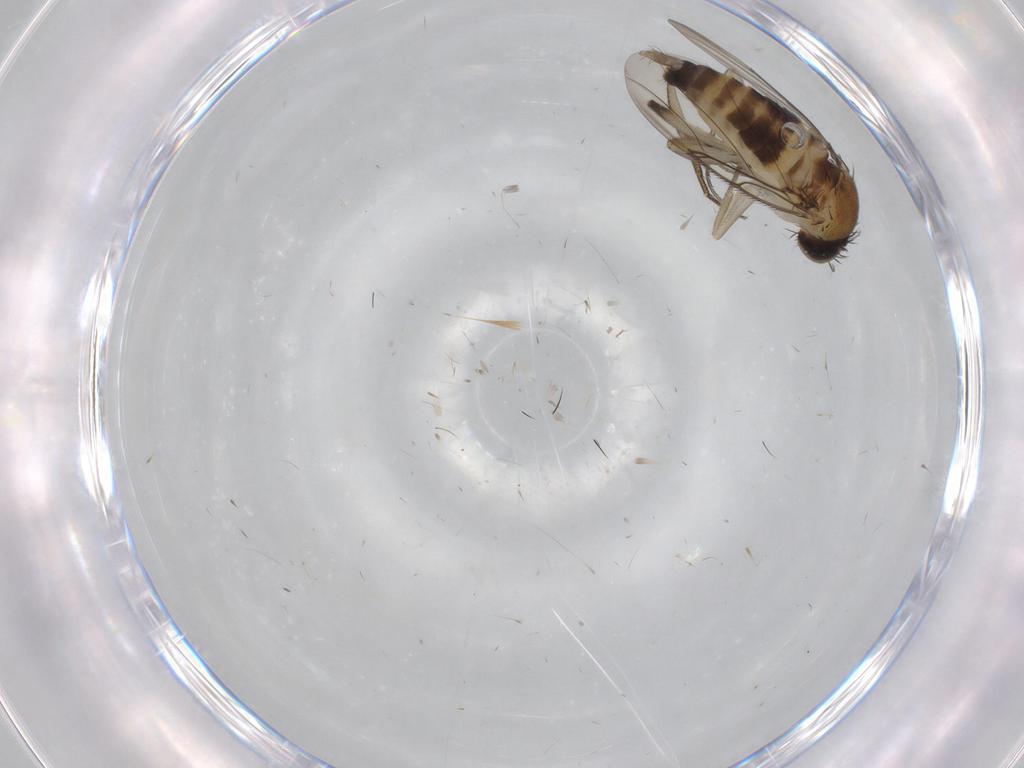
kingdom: Animalia
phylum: Arthropoda
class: Insecta
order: Diptera
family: Phoridae
